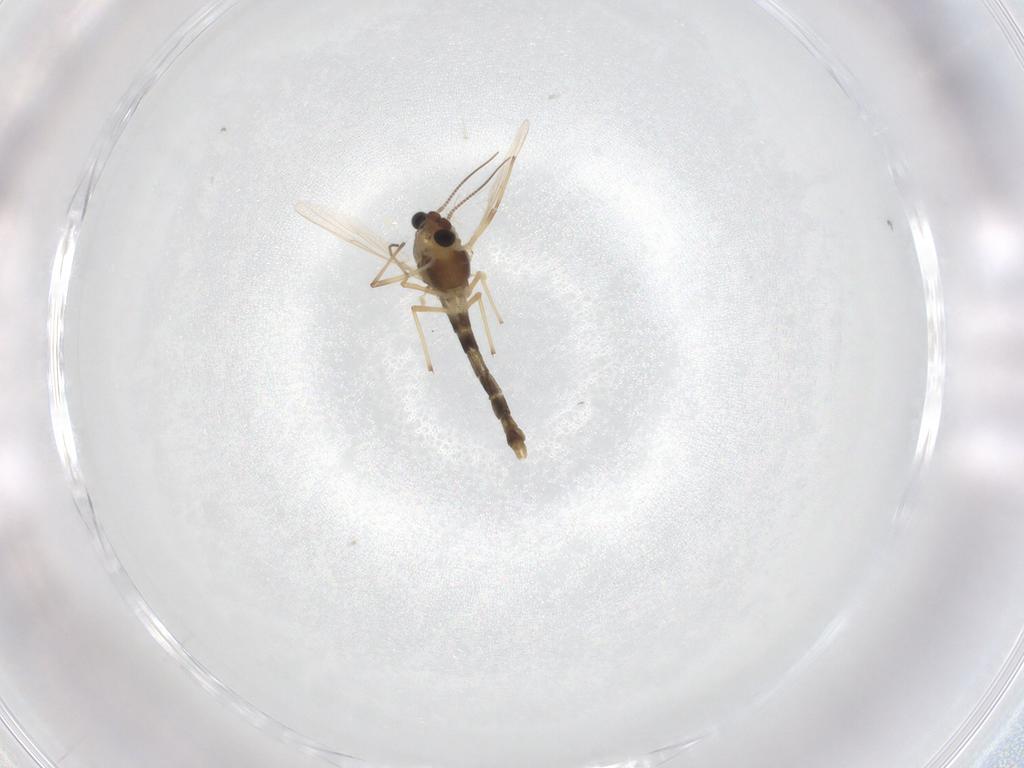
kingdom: Animalia
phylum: Arthropoda
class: Insecta
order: Diptera
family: Chironomidae
